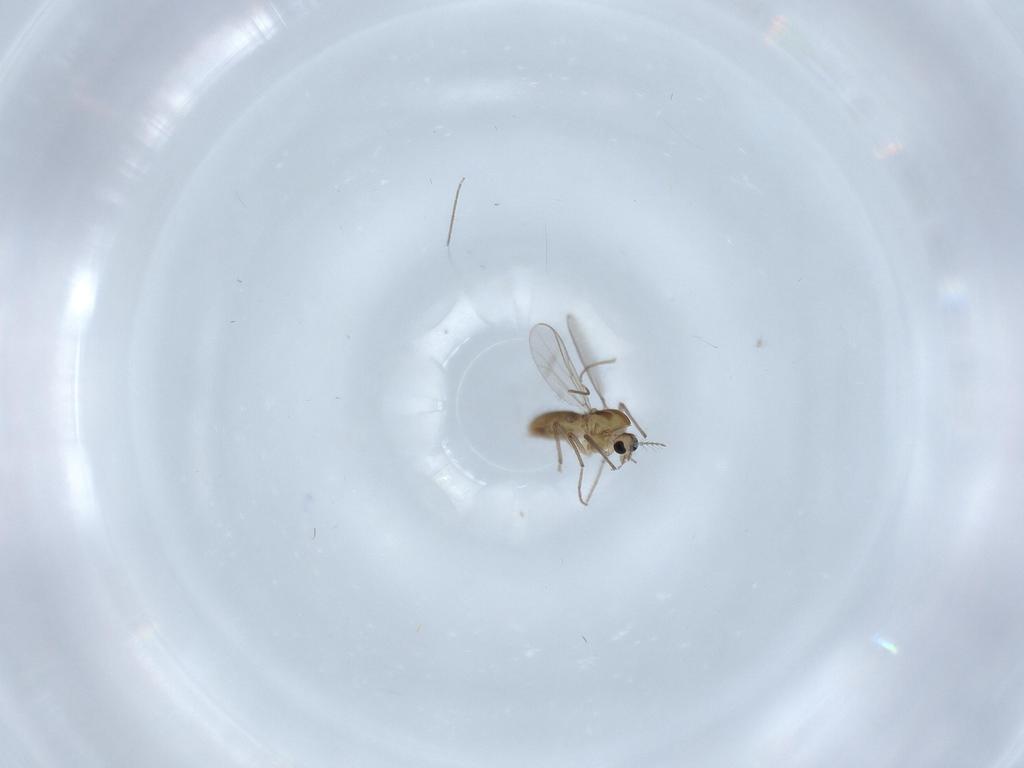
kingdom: Animalia
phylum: Arthropoda
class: Insecta
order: Diptera
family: Chironomidae
